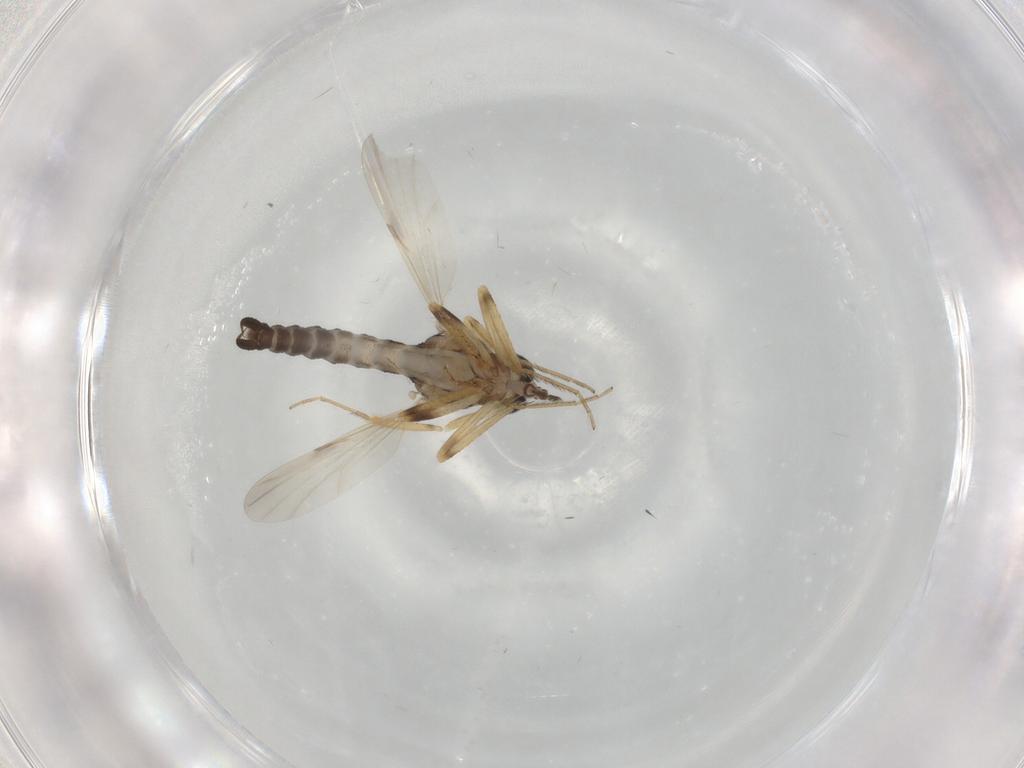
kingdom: Animalia
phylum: Arthropoda
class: Insecta
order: Diptera
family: Ceratopogonidae
